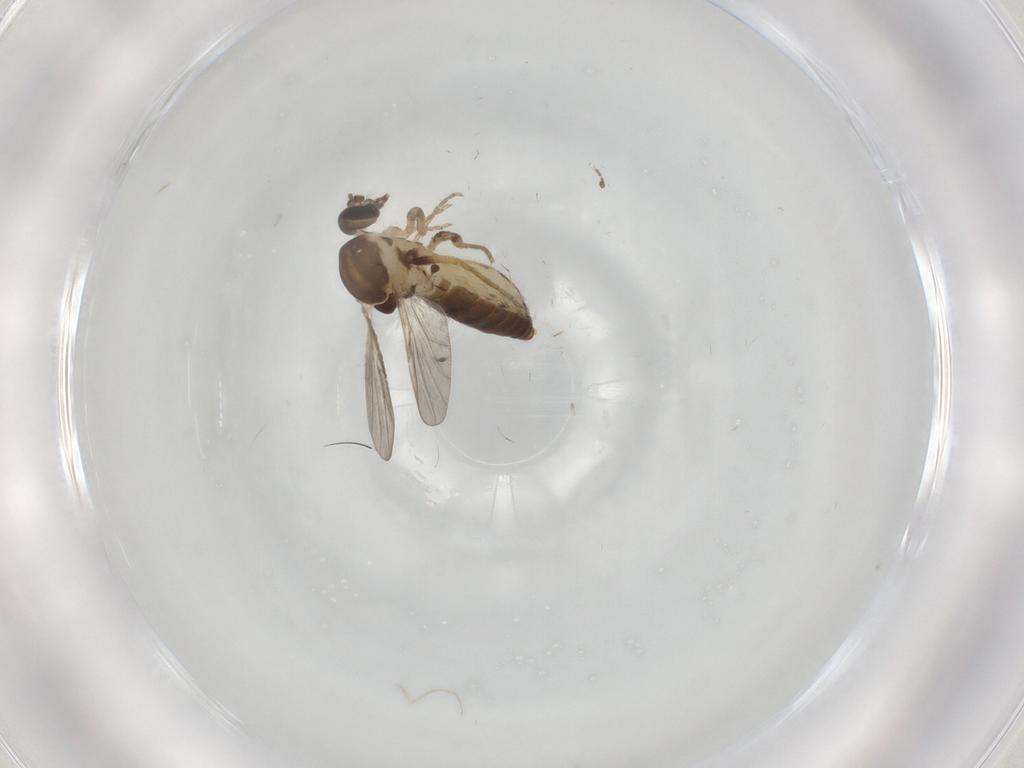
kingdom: Animalia
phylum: Arthropoda
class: Insecta
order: Diptera
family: Ceratopogonidae
